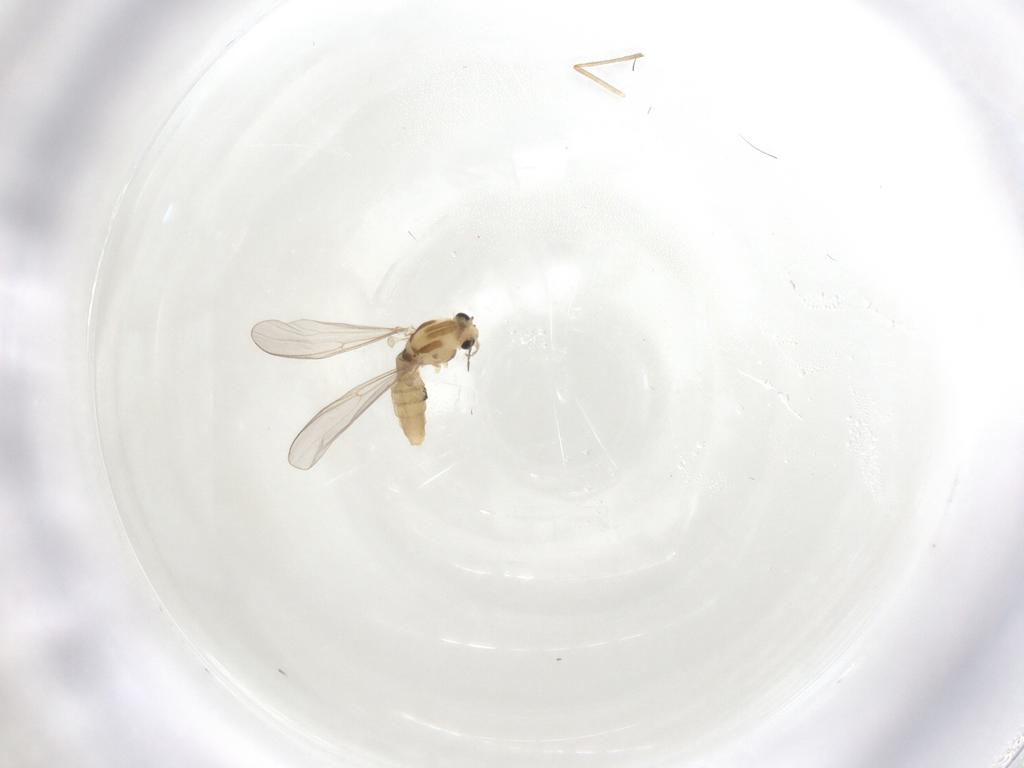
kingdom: Animalia
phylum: Arthropoda
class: Insecta
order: Diptera
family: Chironomidae
